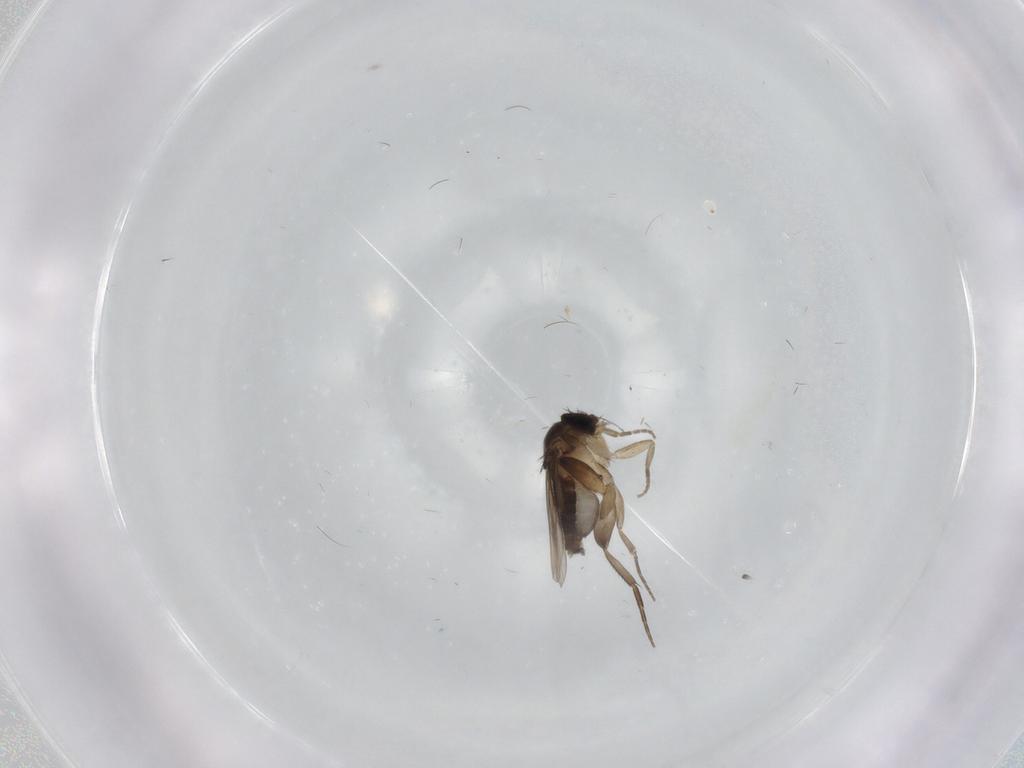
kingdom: Animalia
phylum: Arthropoda
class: Insecta
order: Diptera
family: Phoridae
